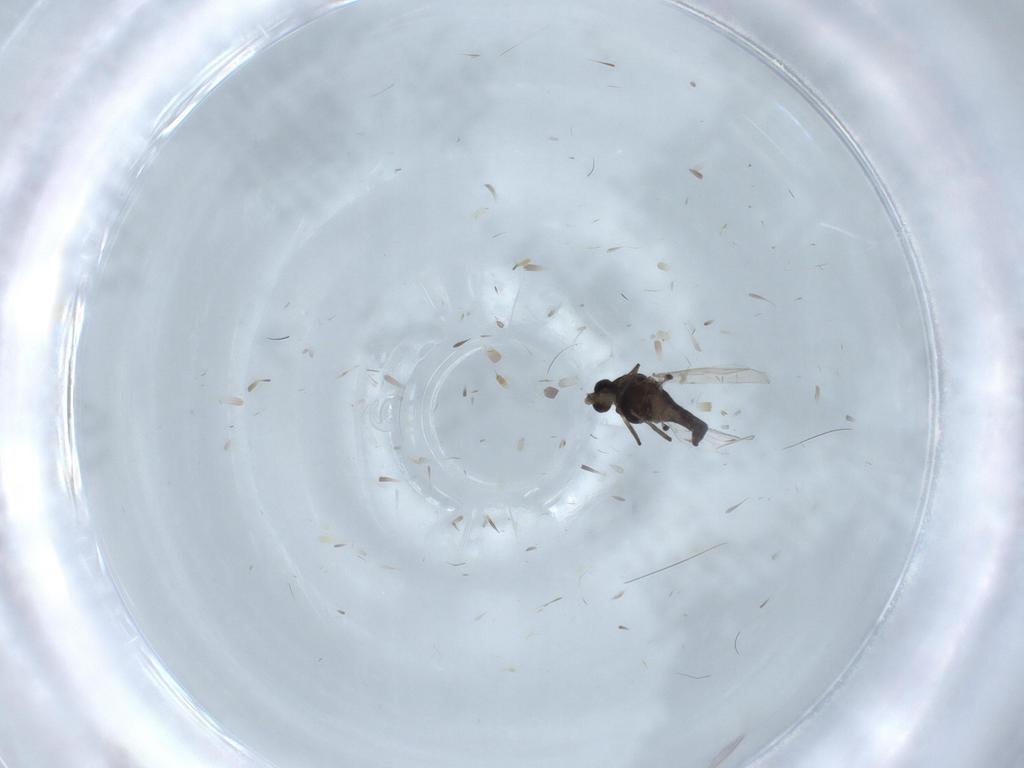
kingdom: Animalia
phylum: Arthropoda
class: Insecta
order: Diptera
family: Chironomidae
